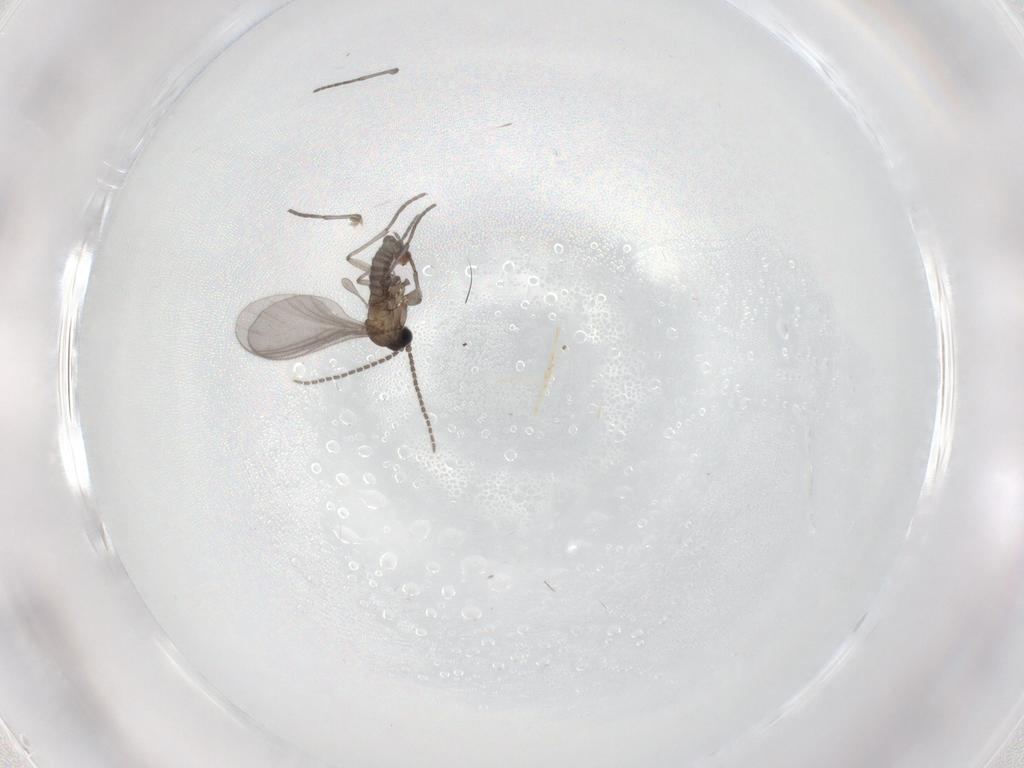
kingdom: Animalia
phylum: Arthropoda
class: Insecta
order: Diptera
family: Sciaridae
